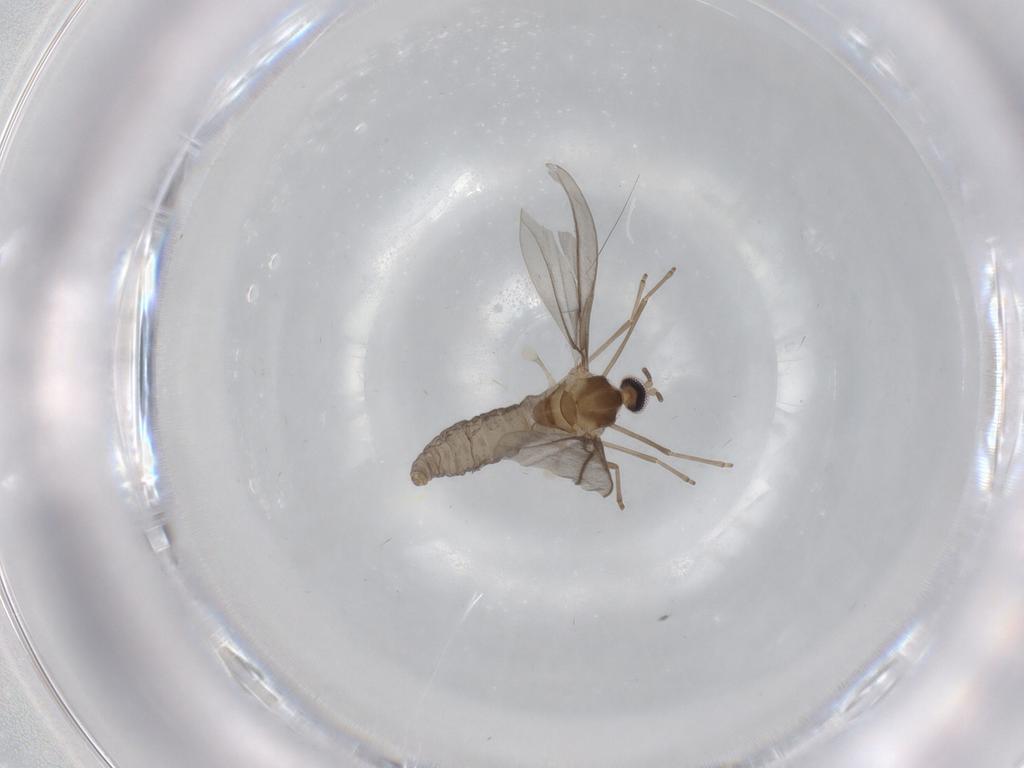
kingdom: Animalia
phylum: Arthropoda
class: Insecta
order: Diptera
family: Cecidomyiidae
